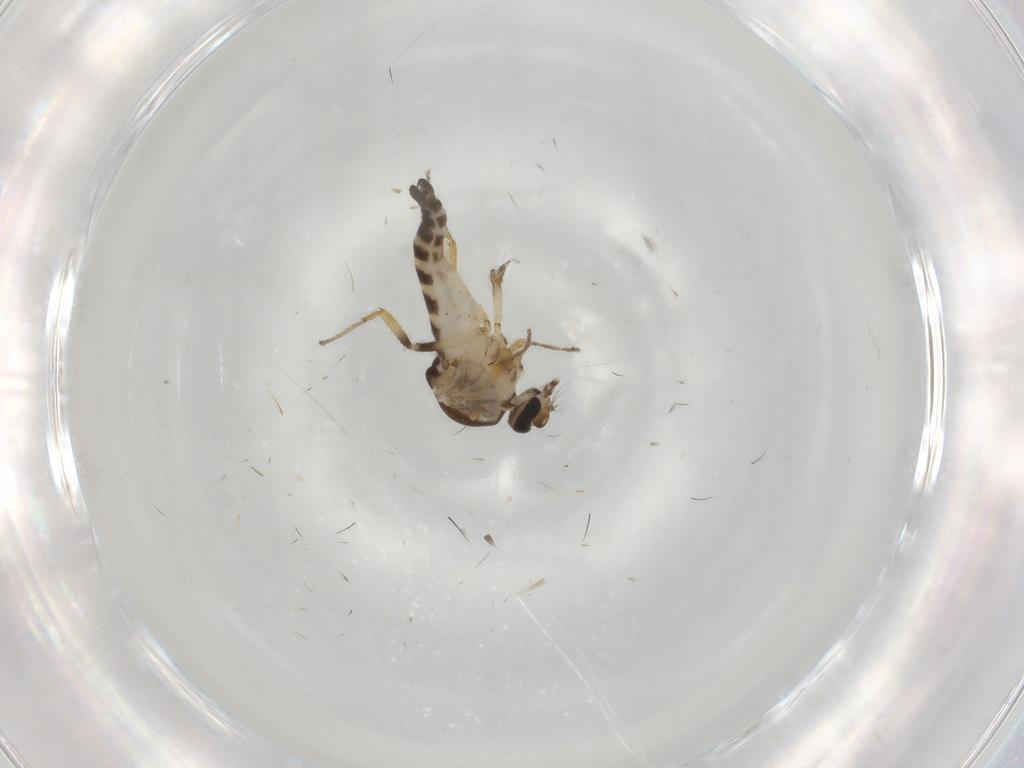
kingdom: Animalia
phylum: Arthropoda
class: Insecta
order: Diptera
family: Ceratopogonidae
